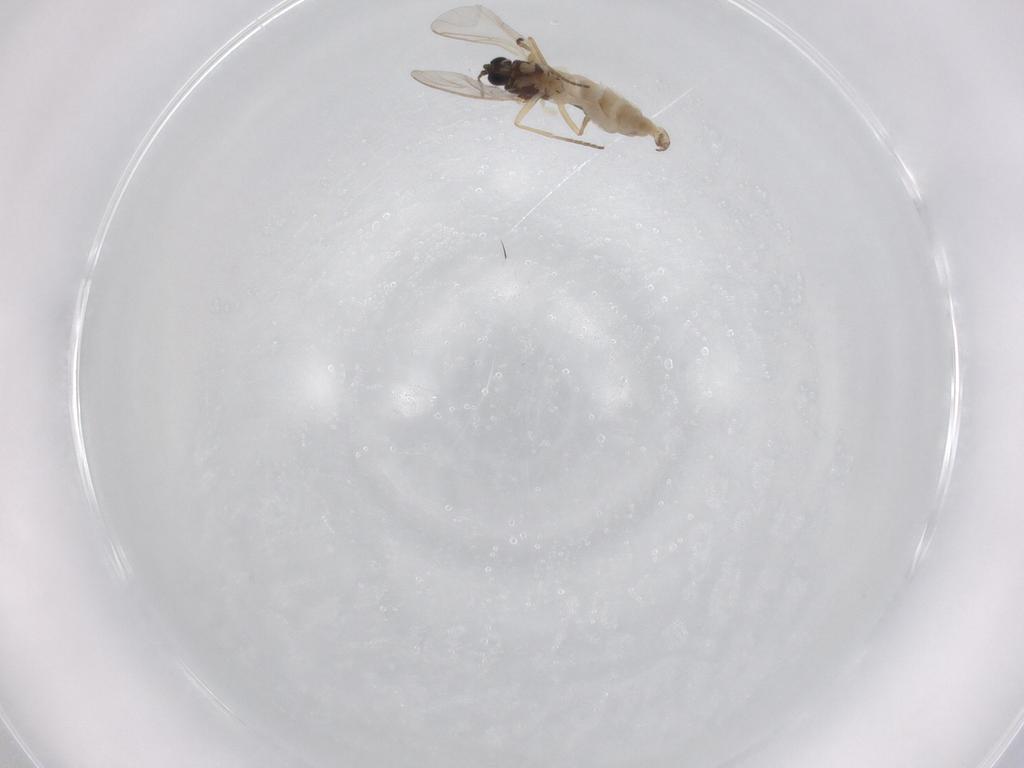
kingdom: Animalia
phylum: Arthropoda
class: Insecta
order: Diptera
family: Psychodidae
